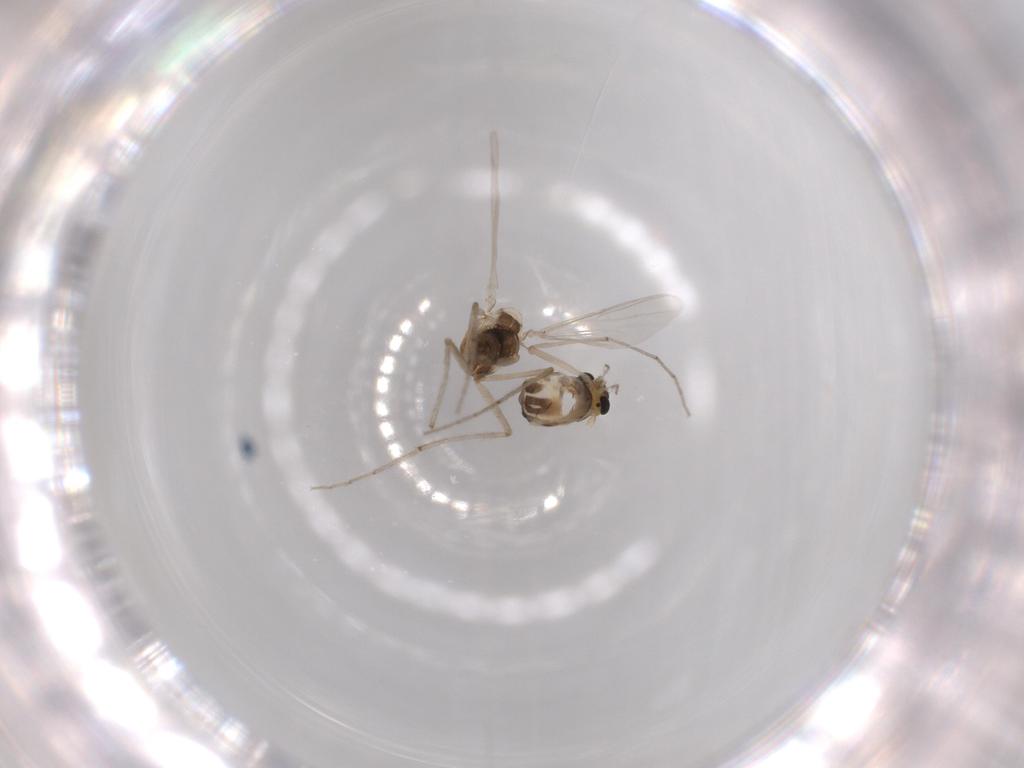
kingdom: Animalia
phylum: Arthropoda
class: Insecta
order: Diptera
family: Chironomidae
